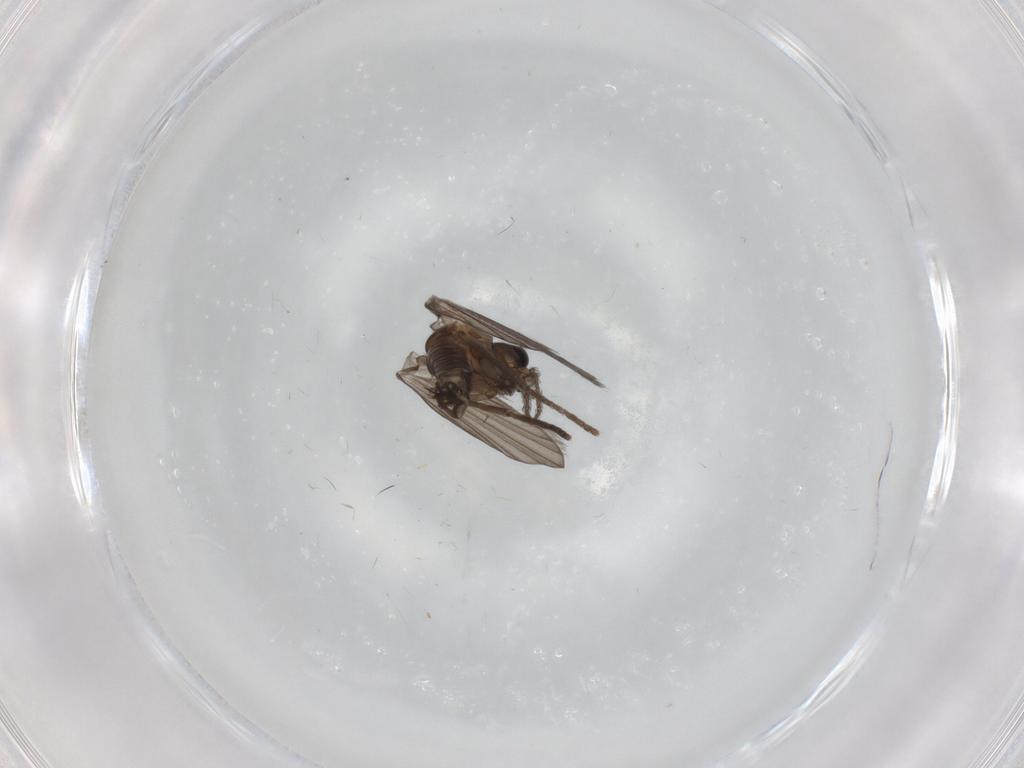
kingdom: Animalia
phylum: Arthropoda
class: Insecta
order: Diptera
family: Sciaridae
